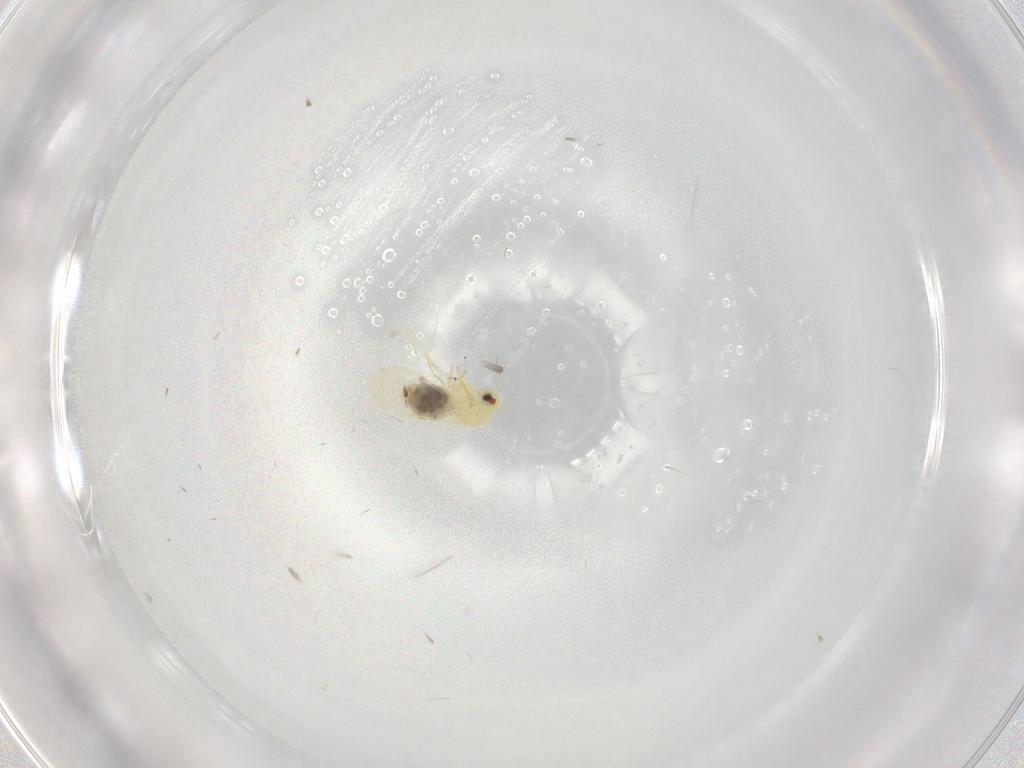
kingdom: Animalia
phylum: Arthropoda
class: Insecta
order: Hemiptera
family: Aleyrodidae
